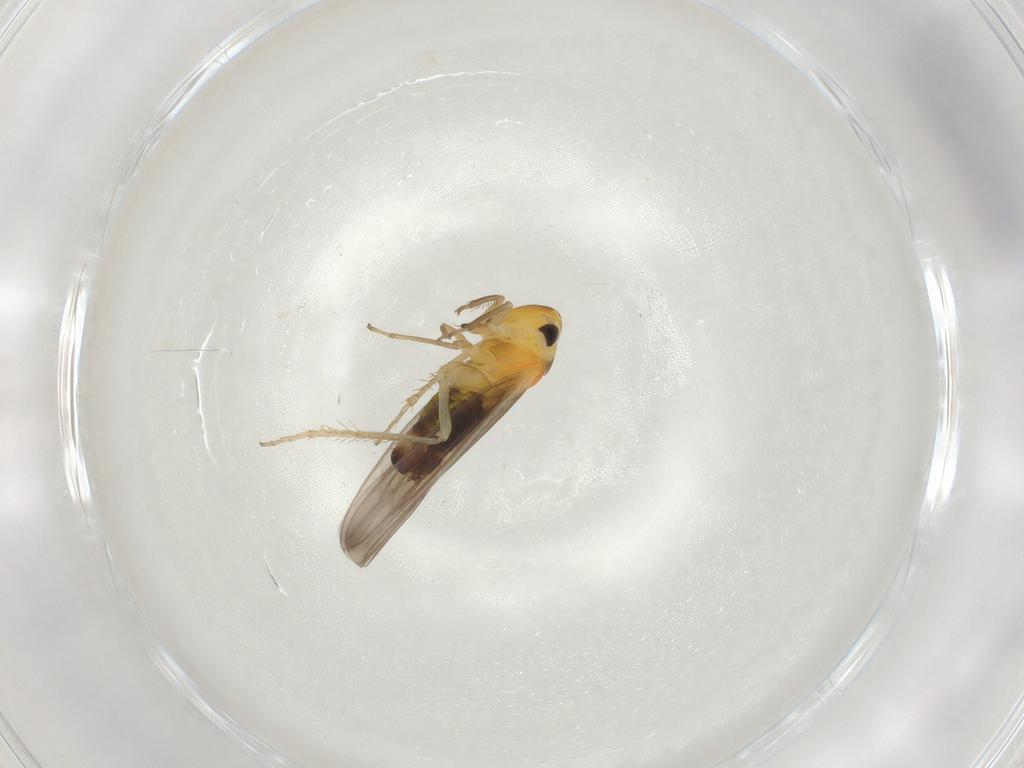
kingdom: Animalia
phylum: Arthropoda
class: Insecta
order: Hemiptera
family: Cicadellidae
